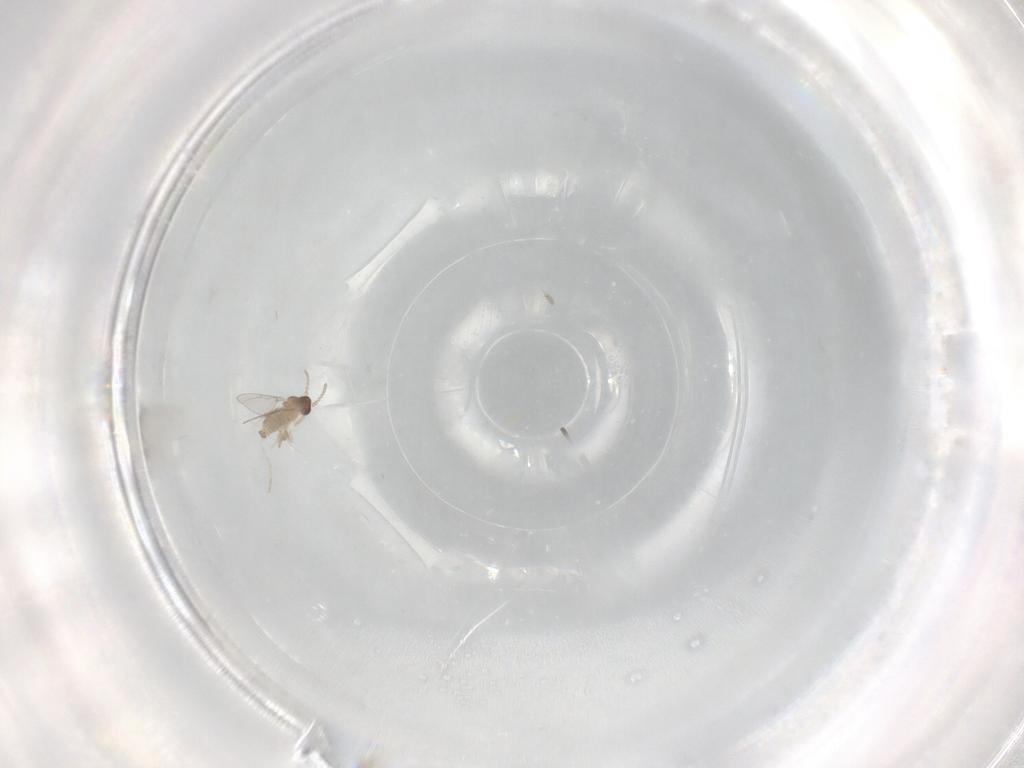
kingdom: Animalia
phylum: Arthropoda
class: Insecta
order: Diptera
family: Cecidomyiidae
